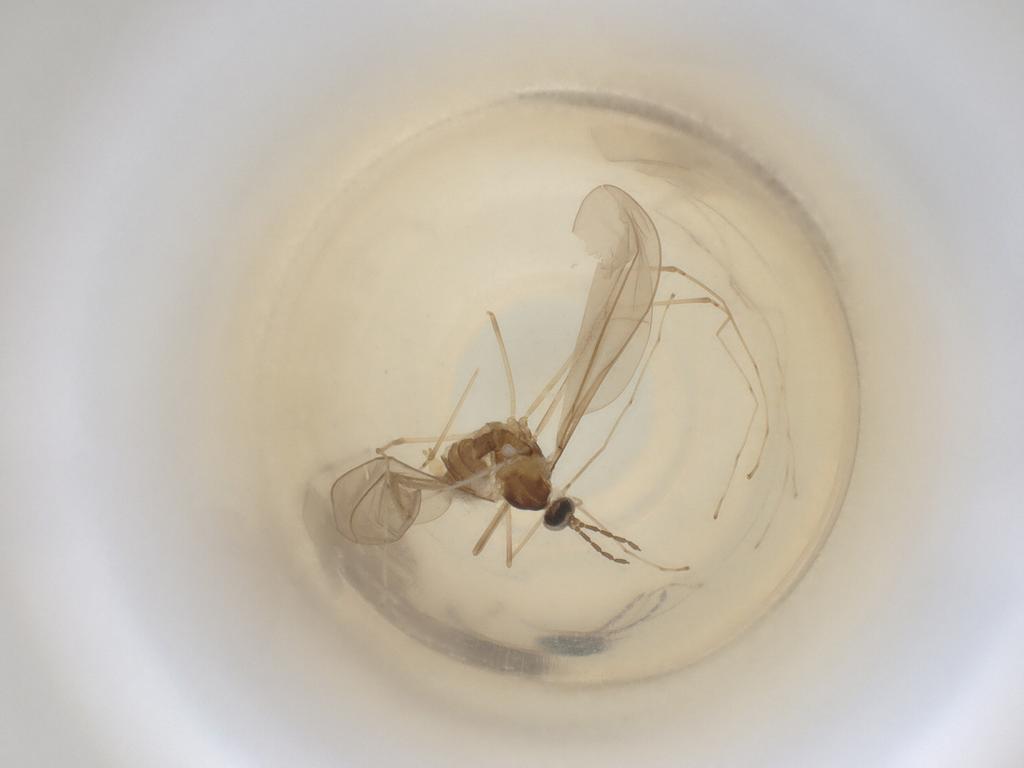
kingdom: Animalia
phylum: Arthropoda
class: Insecta
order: Diptera
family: Cecidomyiidae
